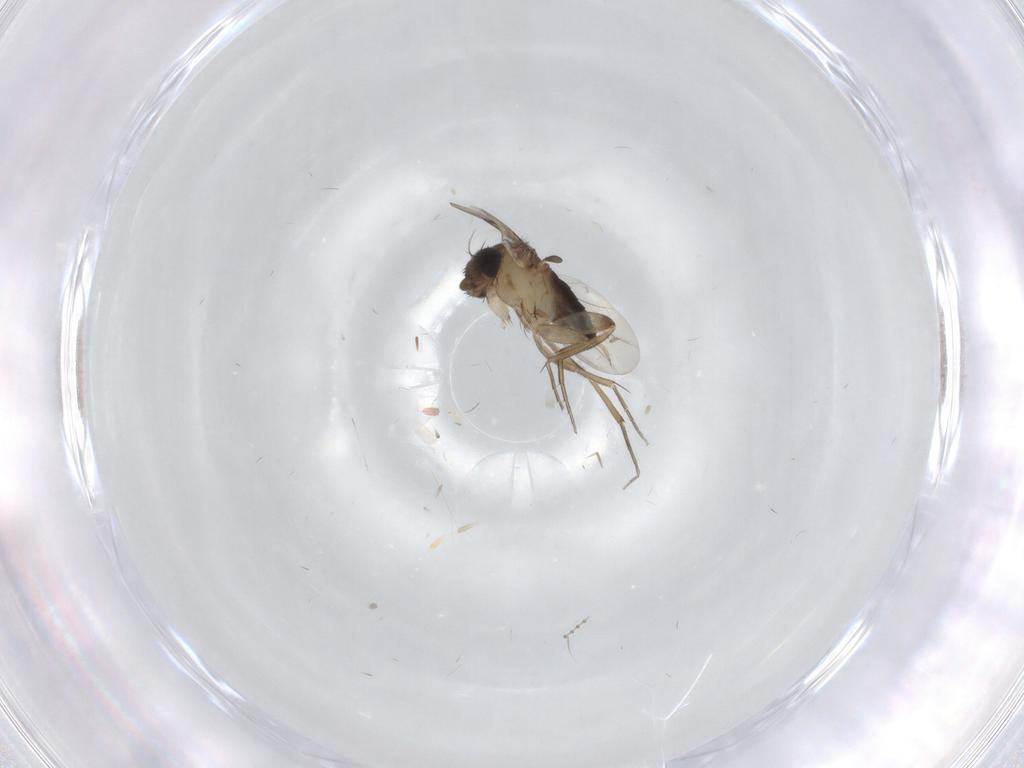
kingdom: Animalia
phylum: Arthropoda
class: Insecta
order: Diptera
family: Phoridae
